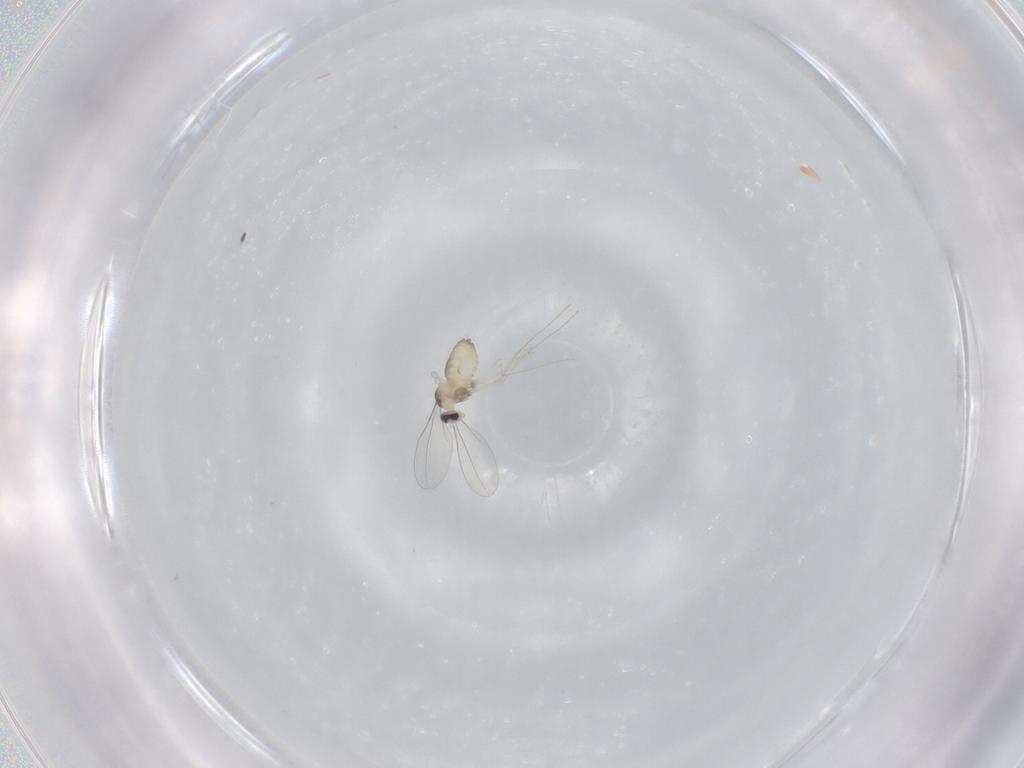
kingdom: Animalia
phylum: Arthropoda
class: Insecta
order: Diptera
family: Cecidomyiidae
